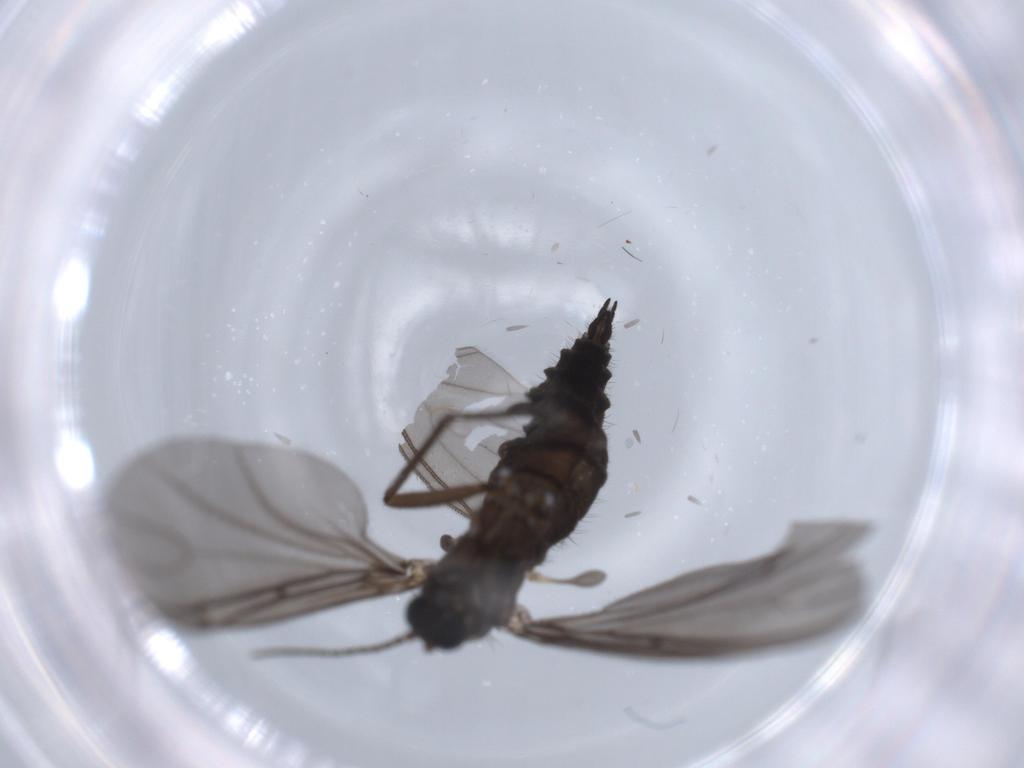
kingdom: Animalia
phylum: Arthropoda
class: Insecta
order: Diptera
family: Sciaridae
